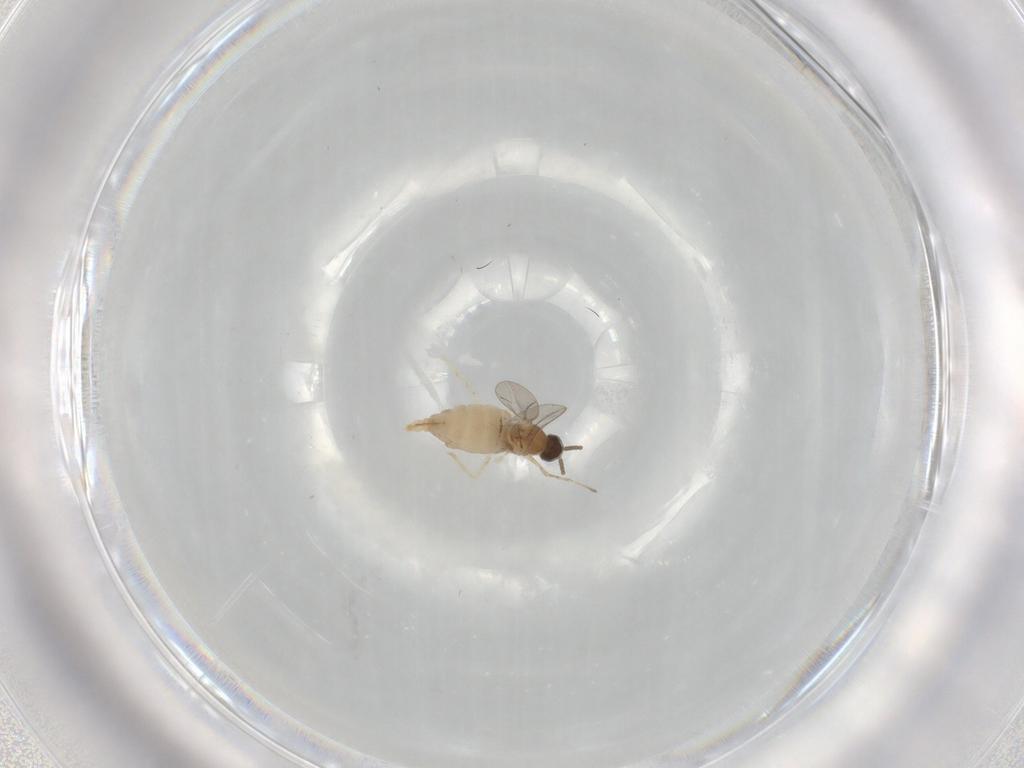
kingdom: Animalia
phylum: Arthropoda
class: Insecta
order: Diptera
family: Cecidomyiidae
